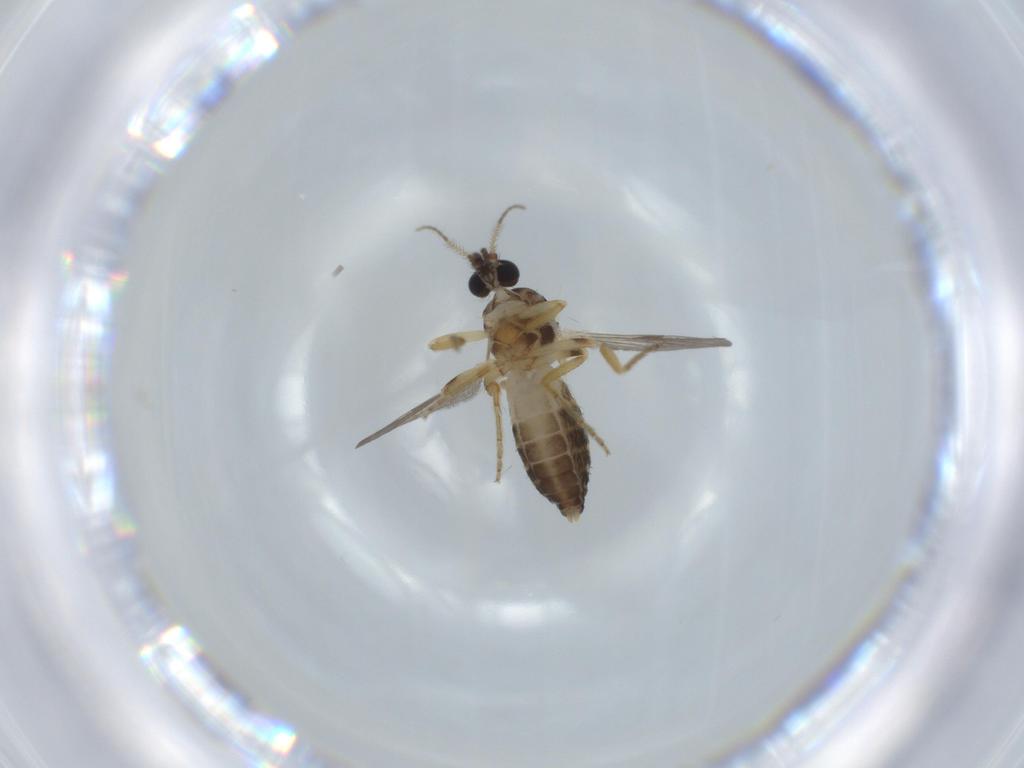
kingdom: Animalia
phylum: Arthropoda
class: Insecta
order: Diptera
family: Ceratopogonidae
